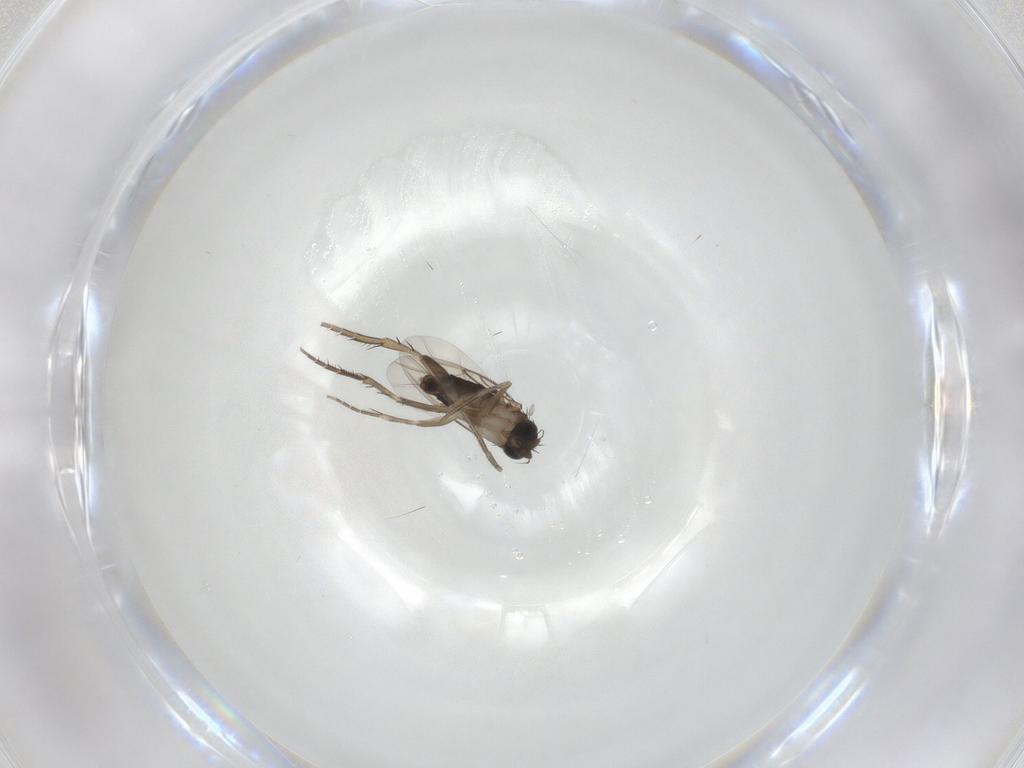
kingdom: Animalia
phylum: Arthropoda
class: Insecta
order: Diptera
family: Phoridae
